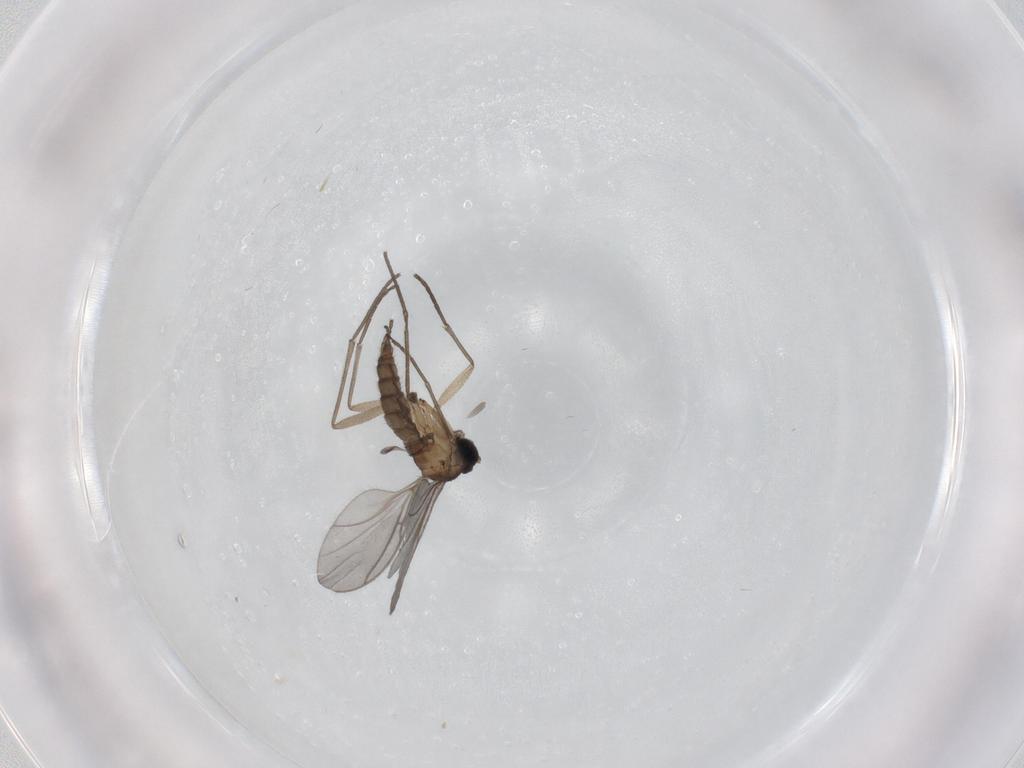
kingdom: Animalia
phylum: Arthropoda
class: Insecta
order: Diptera
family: Sciaridae
